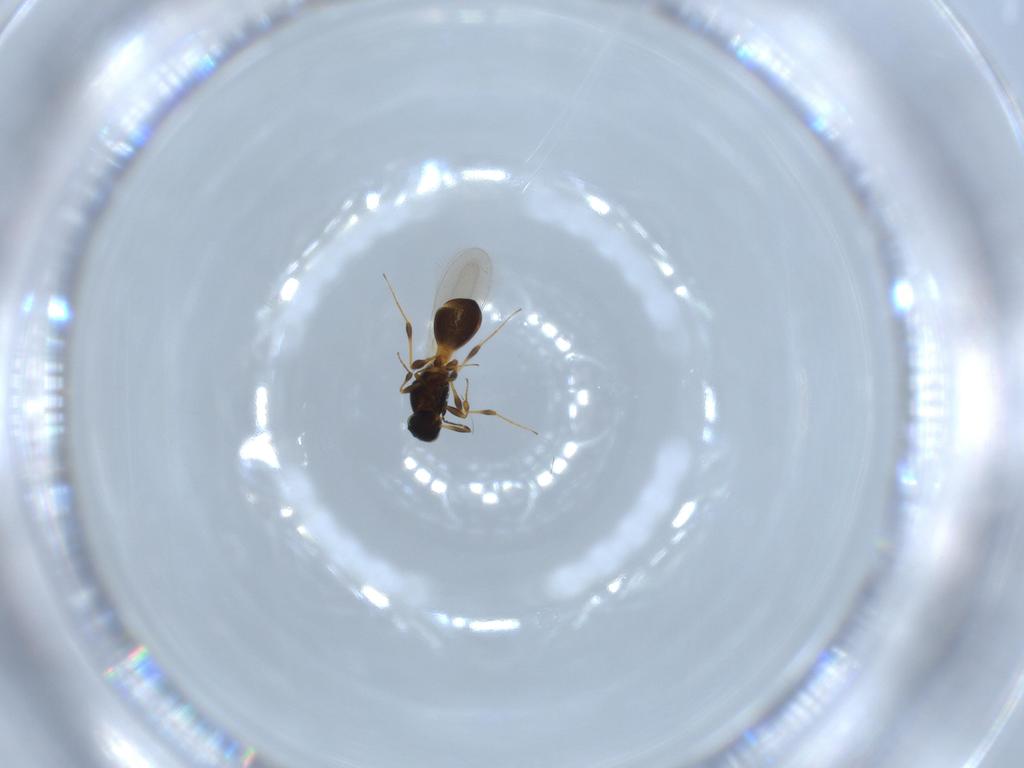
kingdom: Animalia
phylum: Arthropoda
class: Insecta
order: Hymenoptera
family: Platygastridae
